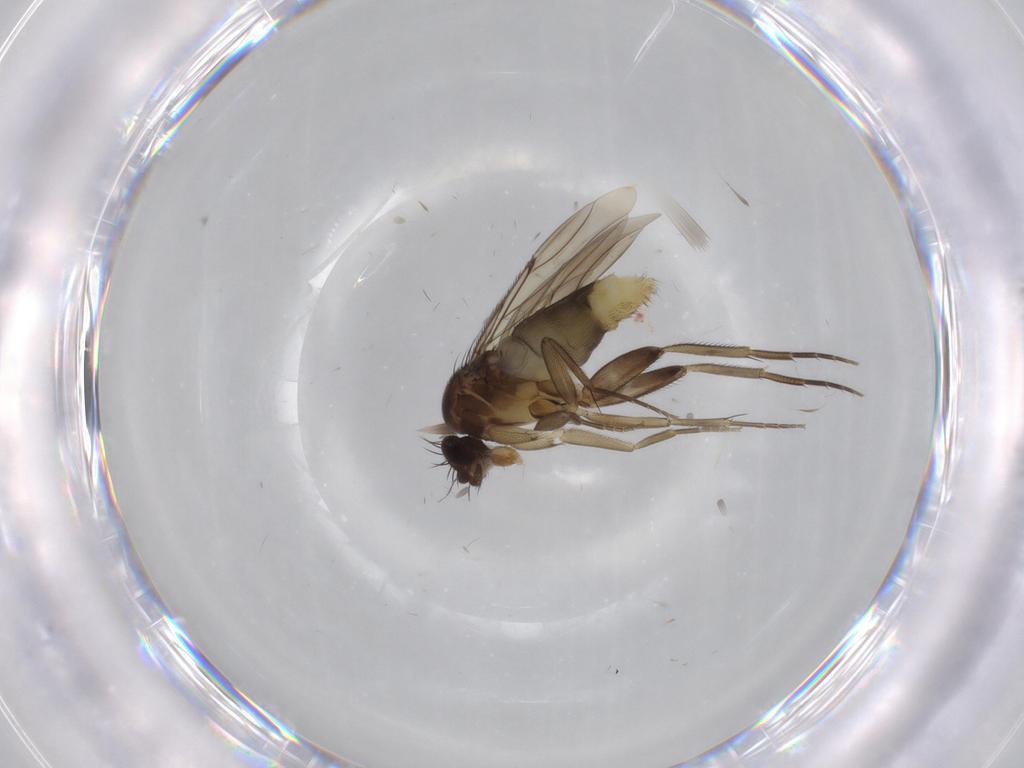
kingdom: Animalia
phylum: Arthropoda
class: Insecta
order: Diptera
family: Phoridae
